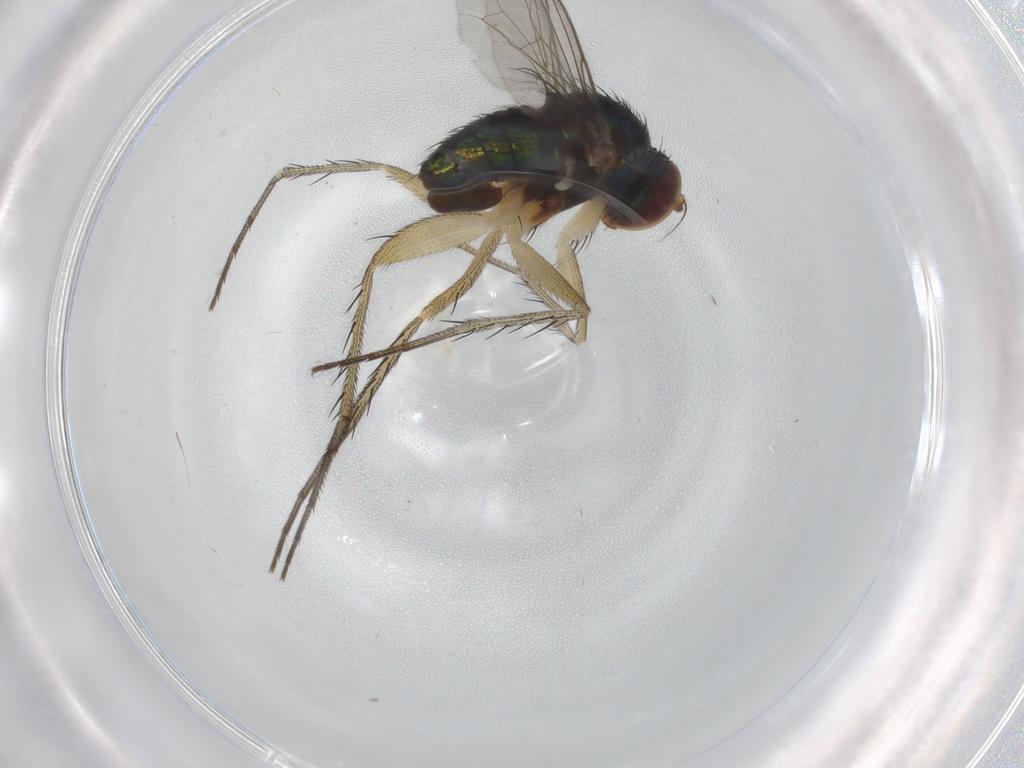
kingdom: Animalia
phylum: Arthropoda
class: Insecta
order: Diptera
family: Dolichopodidae
